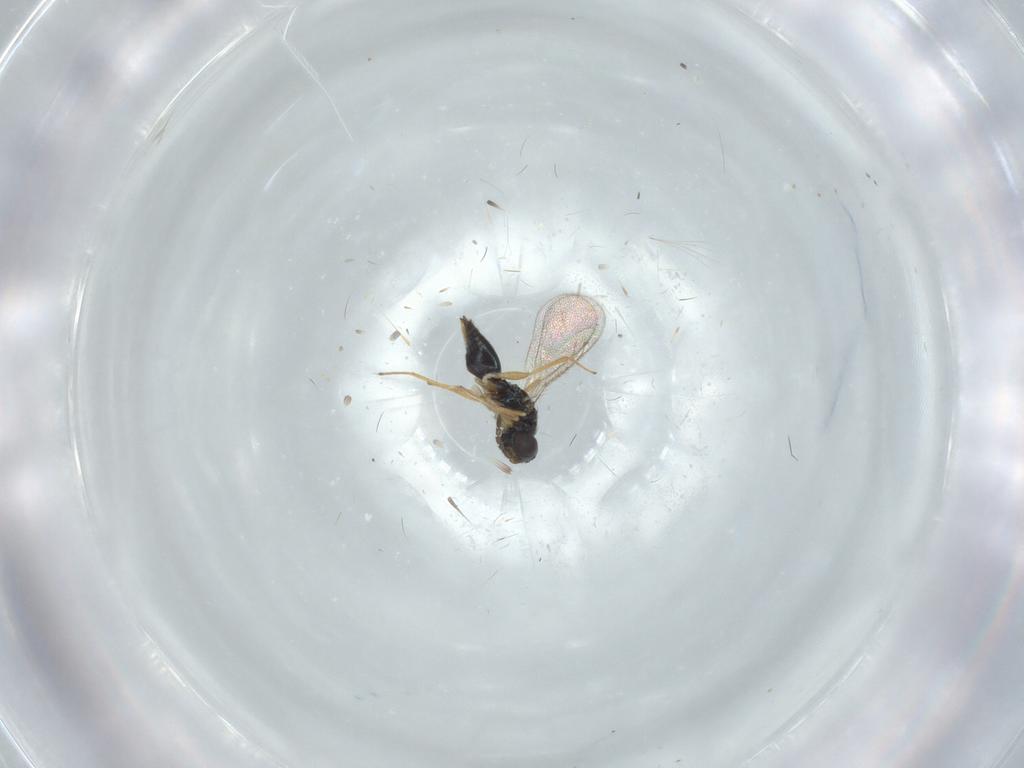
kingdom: Animalia
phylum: Arthropoda
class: Insecta
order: Hymenoptera
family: Eulophidae
